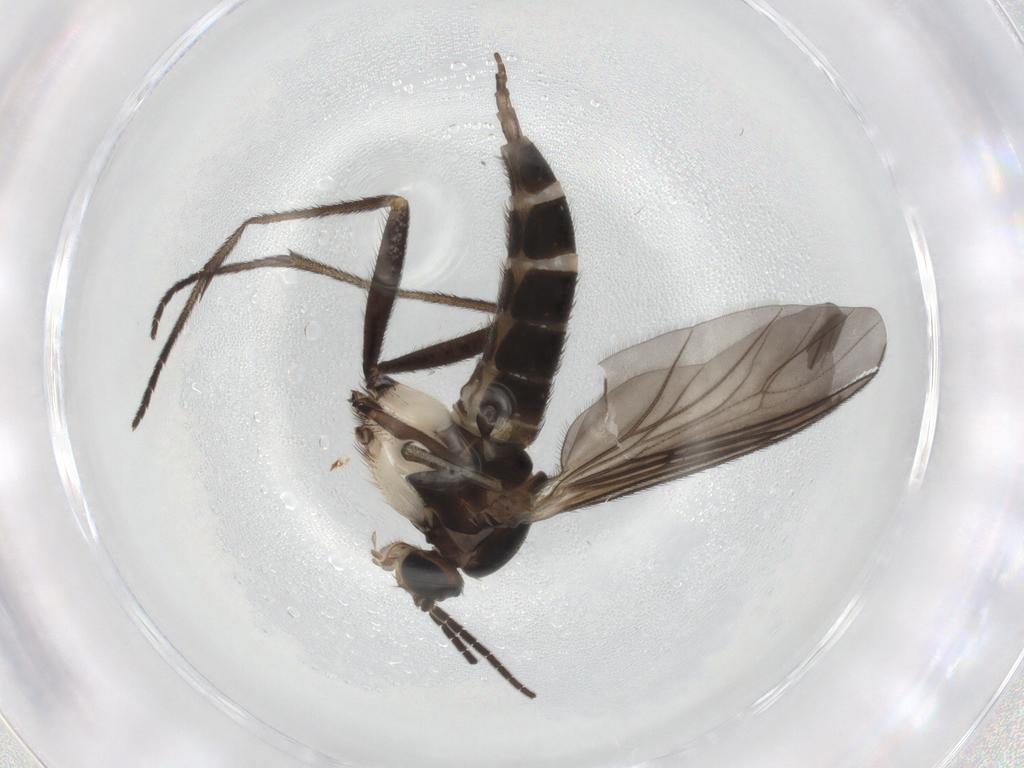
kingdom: Animalia
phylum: Arthropoda
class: Insecta
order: Diptera
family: Sciaridae
